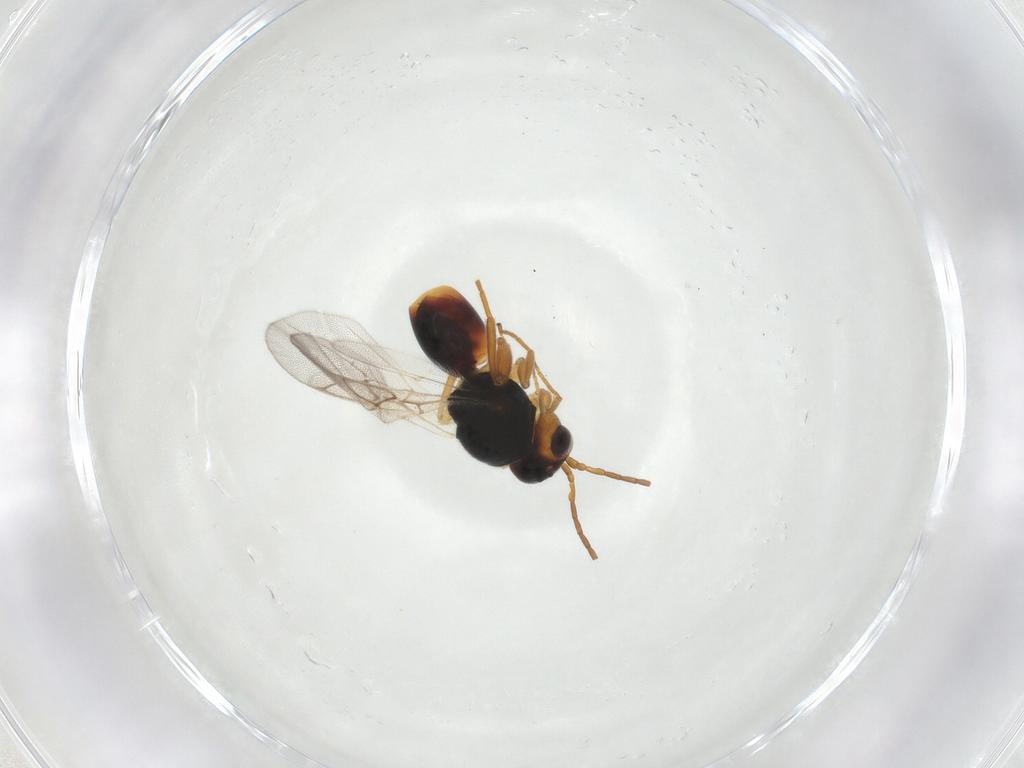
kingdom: Animalia
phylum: Arthropoda
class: Insecta
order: Hymenoptera
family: Cynipidae
